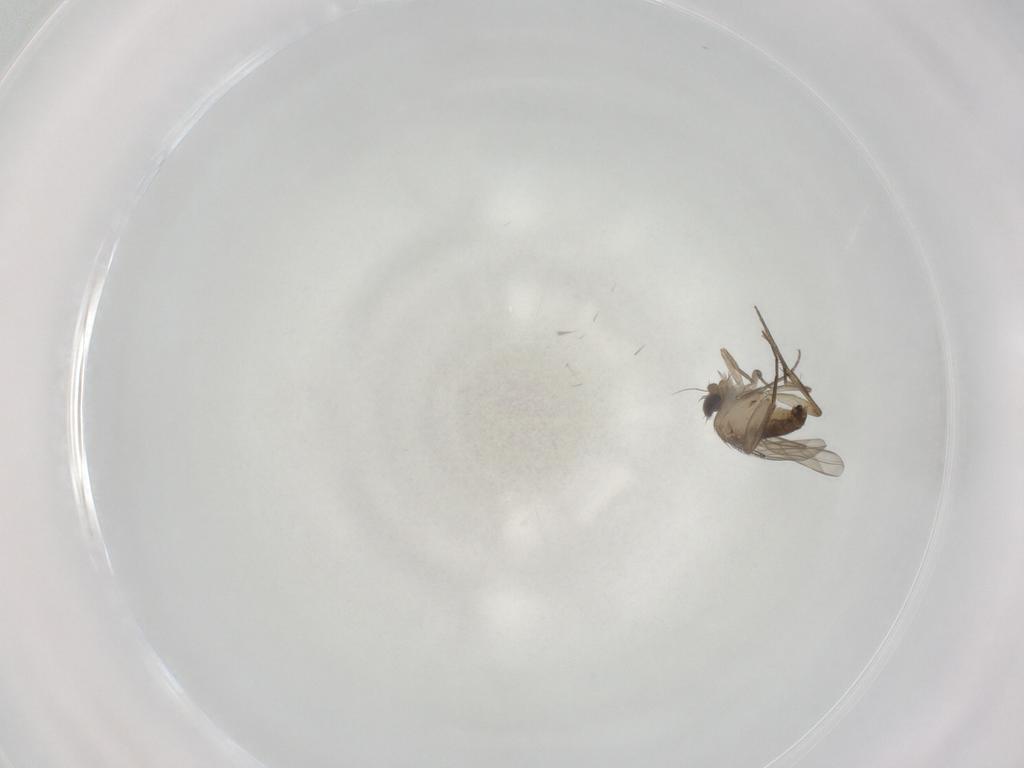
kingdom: Animalia
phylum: Arthropoda
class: Insecta
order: Diptera
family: Phoridae
